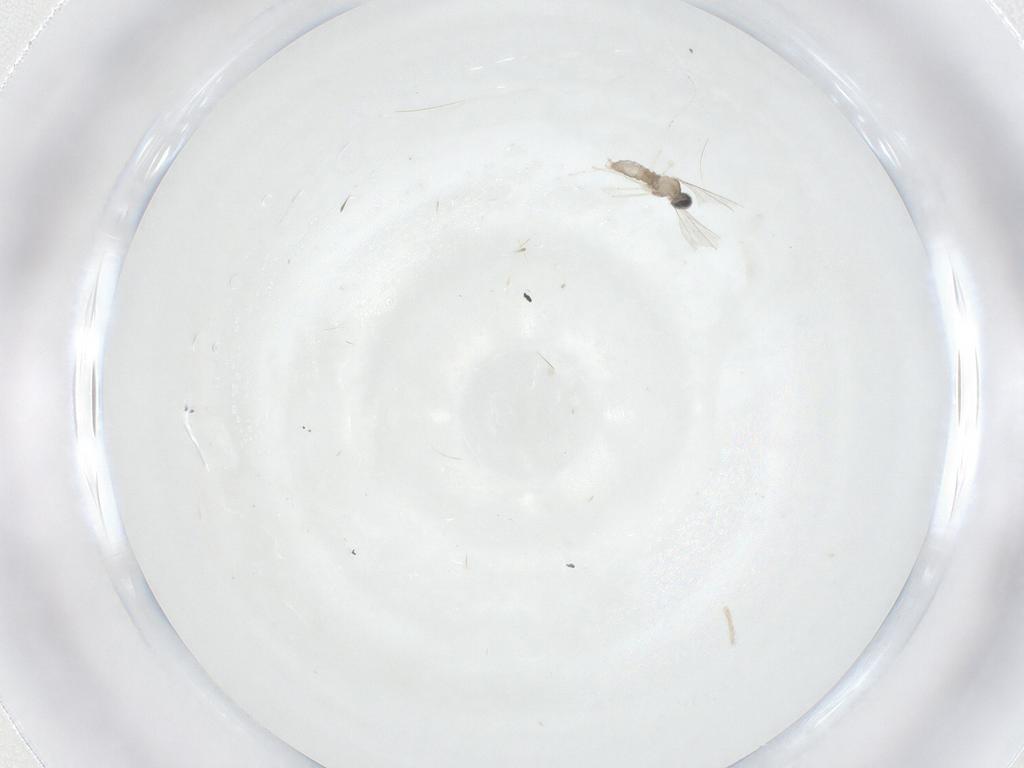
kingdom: Animalia
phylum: Arthropoda
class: Insecta
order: Diptera
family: Cecidomyiidae
